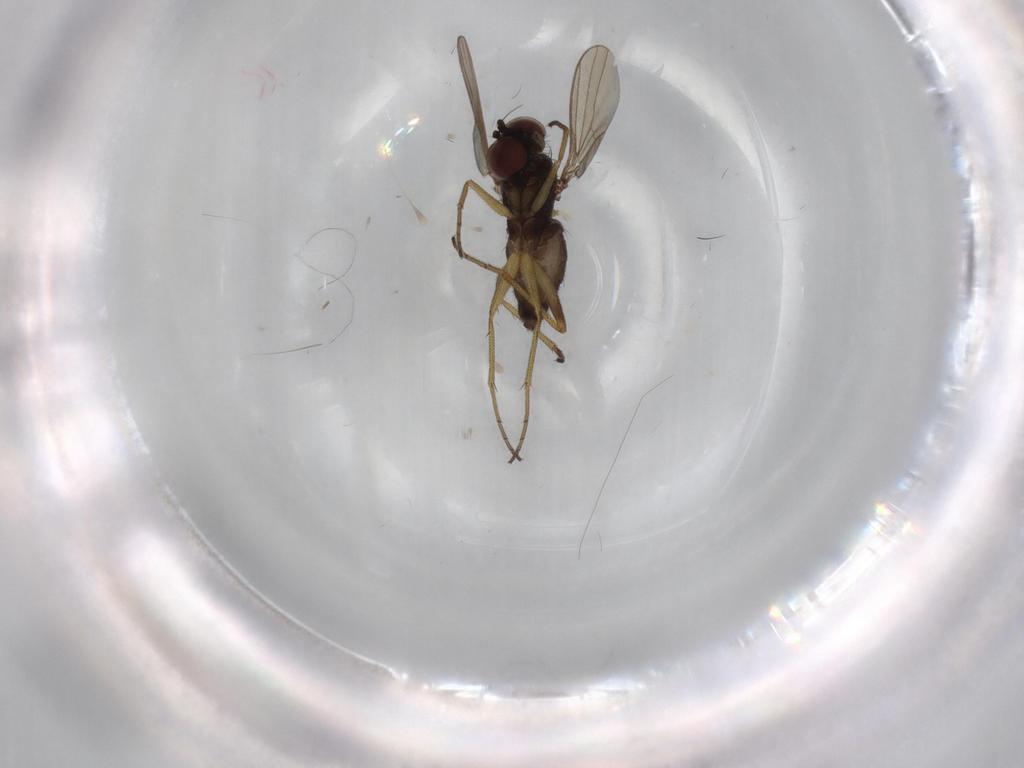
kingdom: Animalia
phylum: Arthropoda
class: Insecta
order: Diptera
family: Dolichopodidae
